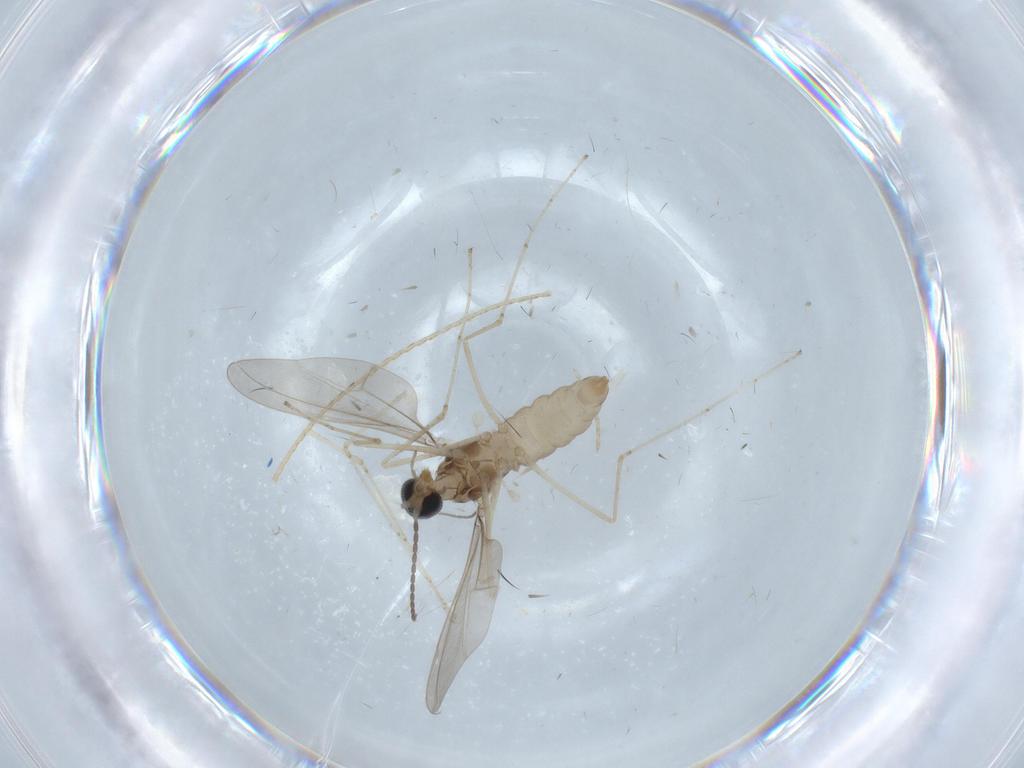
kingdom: Animalia
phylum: Arthropoda
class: Insecta
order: Diptera
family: Cecidomyiidae
